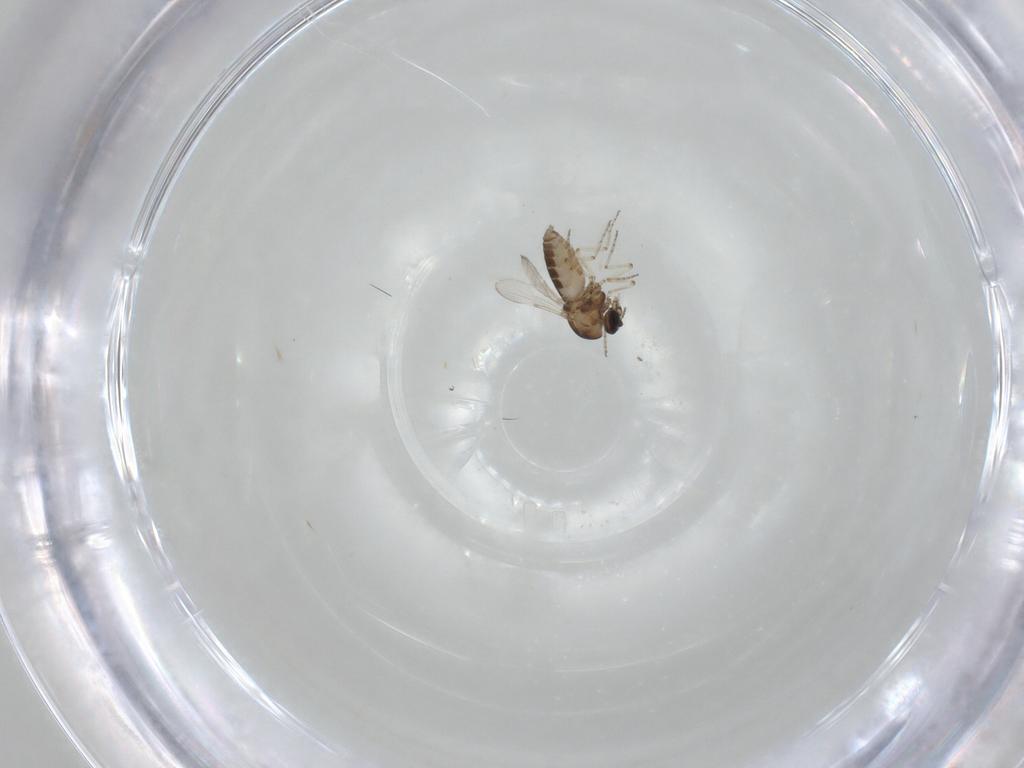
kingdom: Animalia
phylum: Arthropoda
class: Insecta
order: Diptera
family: Ceratopogonidae
